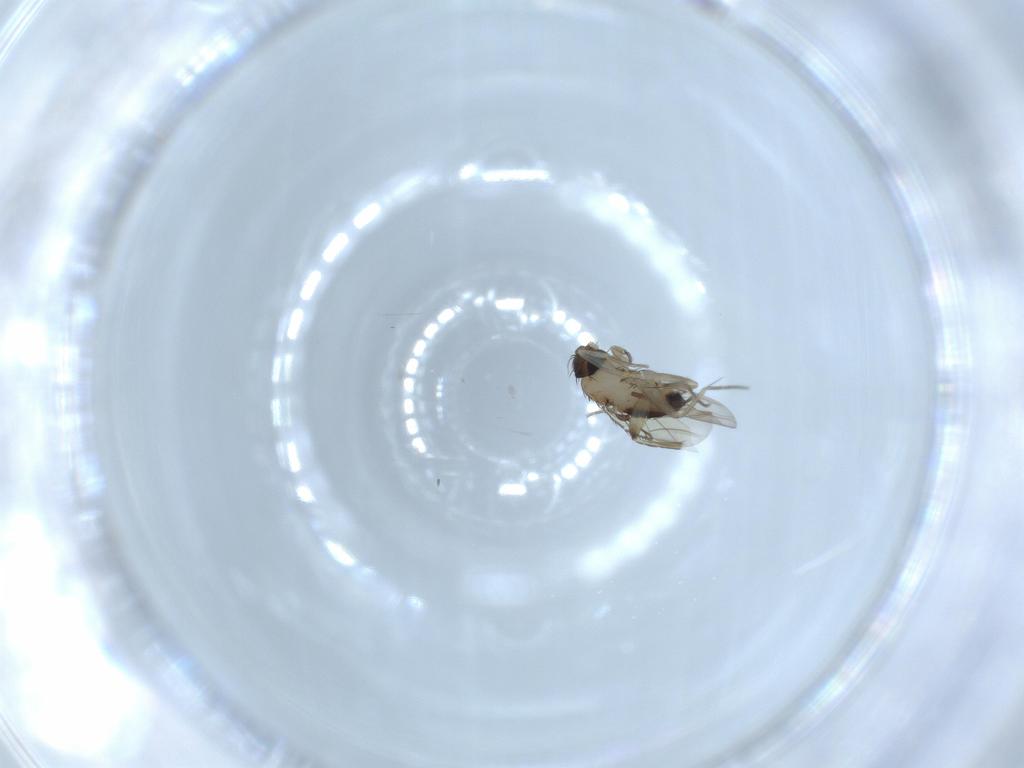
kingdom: Animalia
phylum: Arthropoda
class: Insecta
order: Diptera
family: Phoridae
